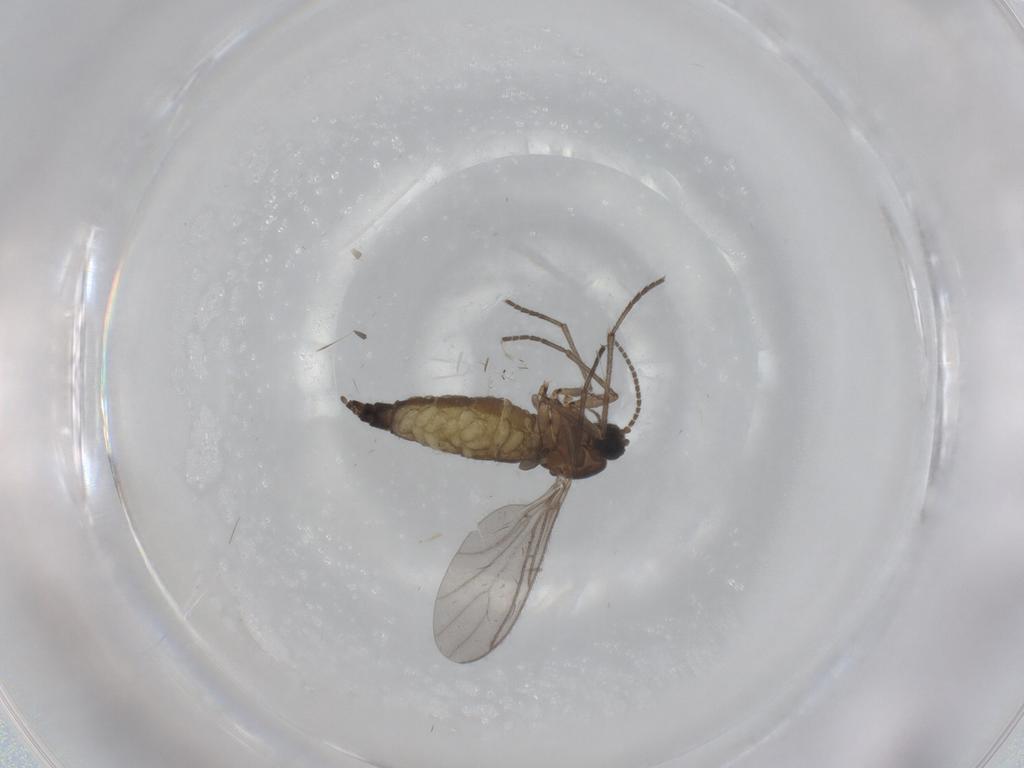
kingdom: Animalia
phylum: Arthropoda
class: Insecta
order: Diptera
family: Sciaridae
